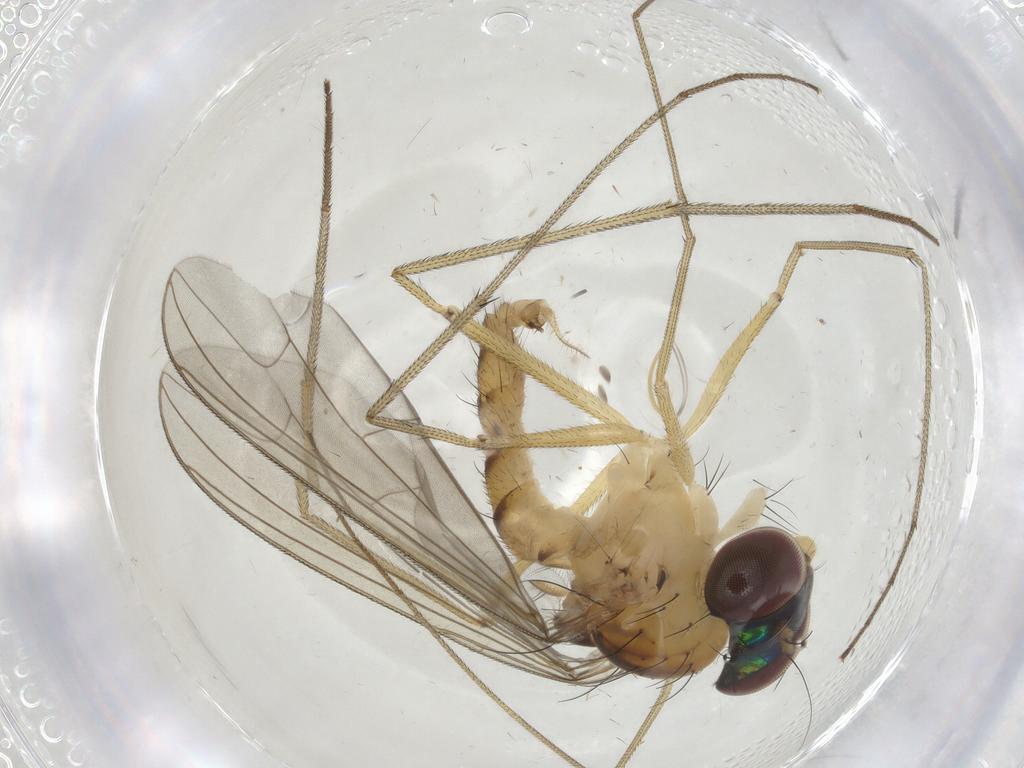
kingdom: Animalia
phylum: Arthropoda
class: Insecta
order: Diptera
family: Dolichopodidae
